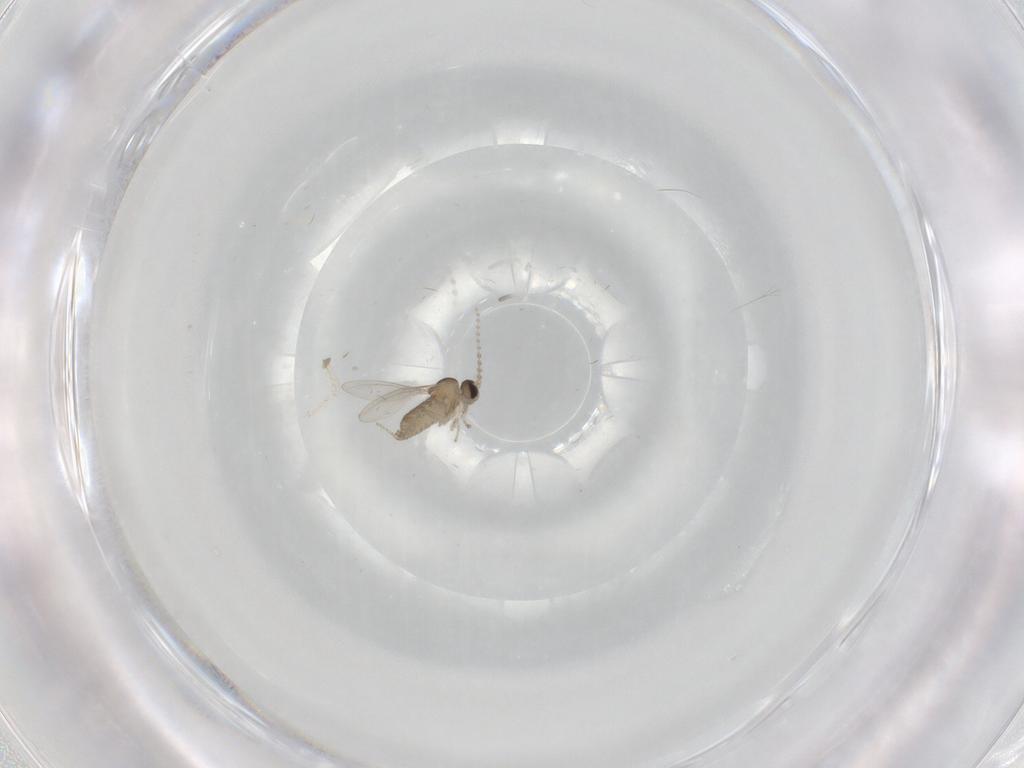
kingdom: Animalia
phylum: Arthropoda
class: Insecta
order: Diptera
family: Cecidomyiidae
